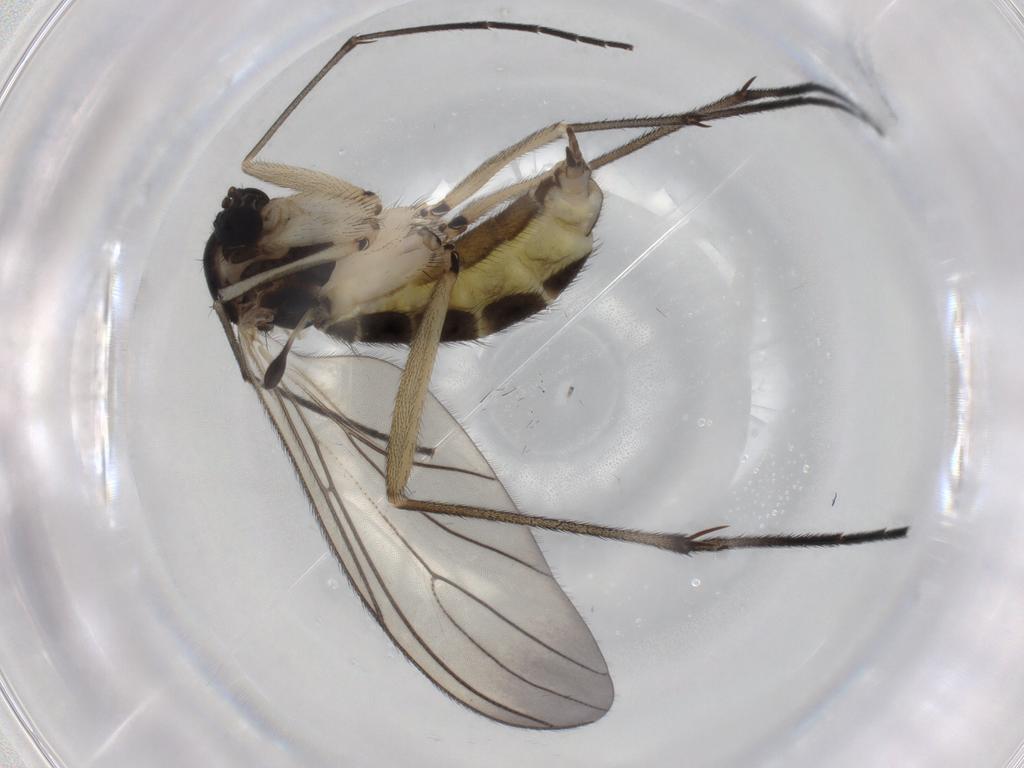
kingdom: Animalia
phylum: Arthropoda
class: Insecta
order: Diptera
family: Sciaridae
